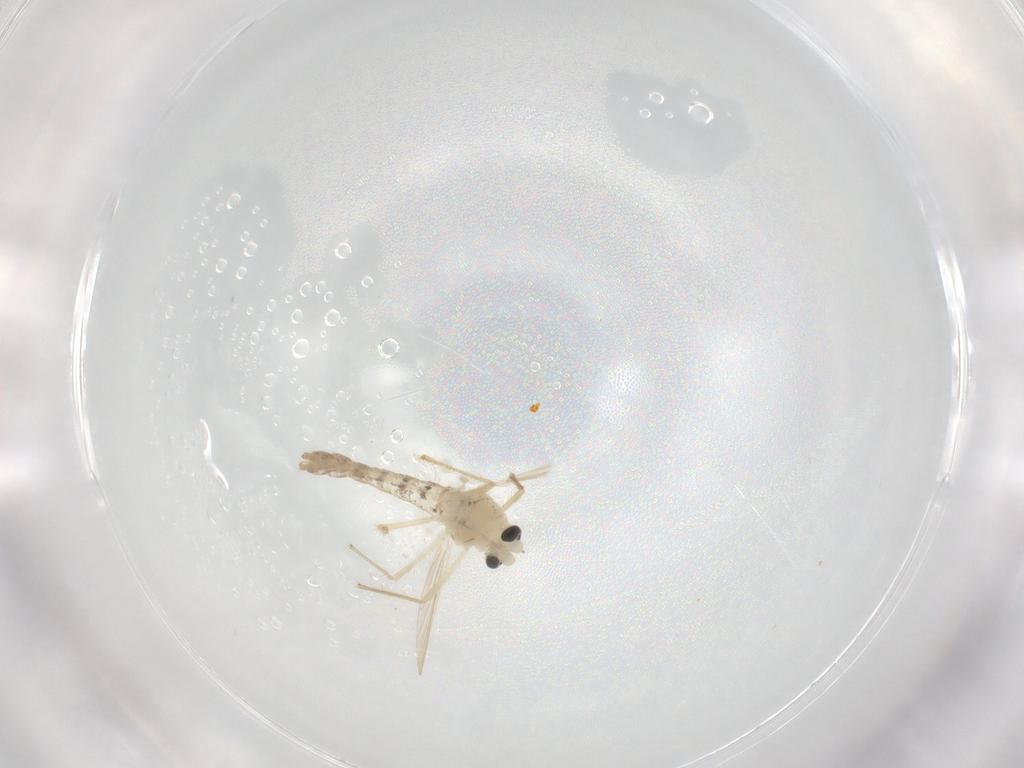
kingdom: Animalia
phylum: Arthropoda
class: Insecta
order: Diptera
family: Chironomidae
